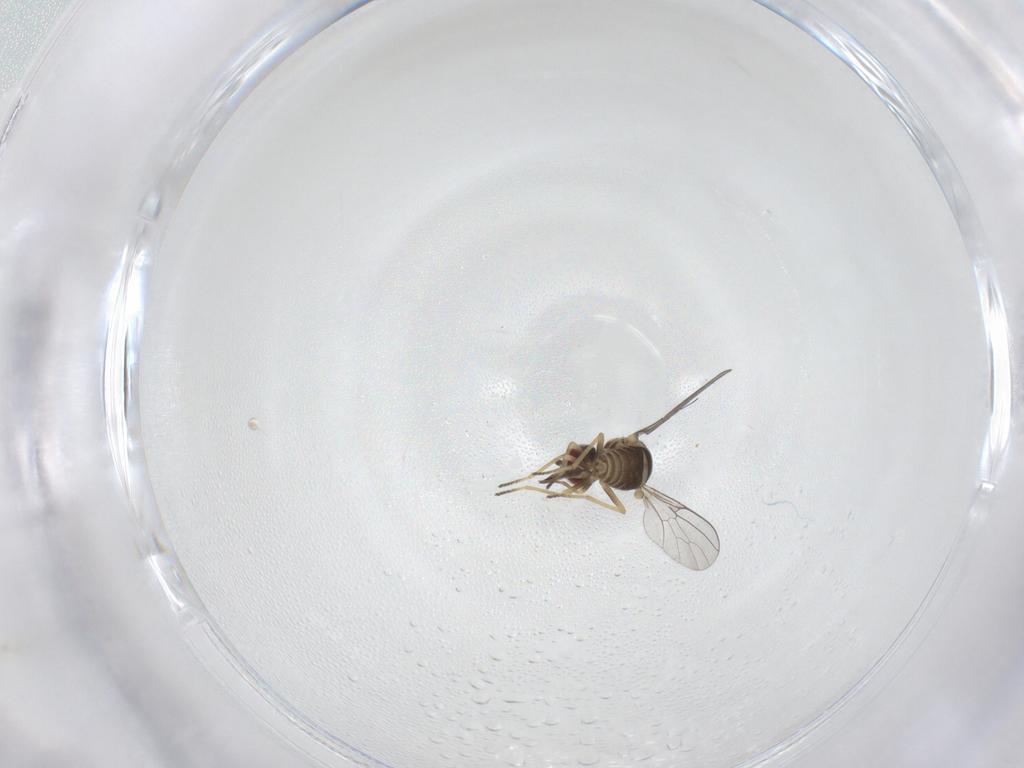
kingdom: Animalia
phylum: Arthropoda
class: Insecta
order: Diptera
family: Bombyliidae
